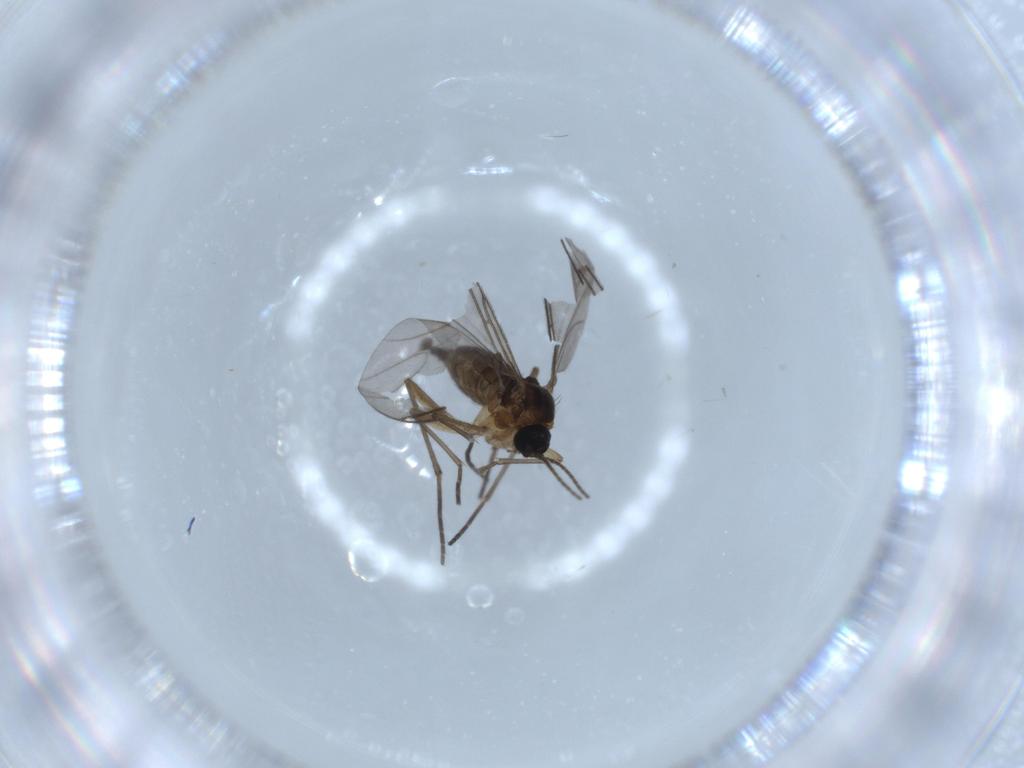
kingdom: Animalia
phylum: Arthropoda
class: Insecta
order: Diptera
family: Sciaridae
